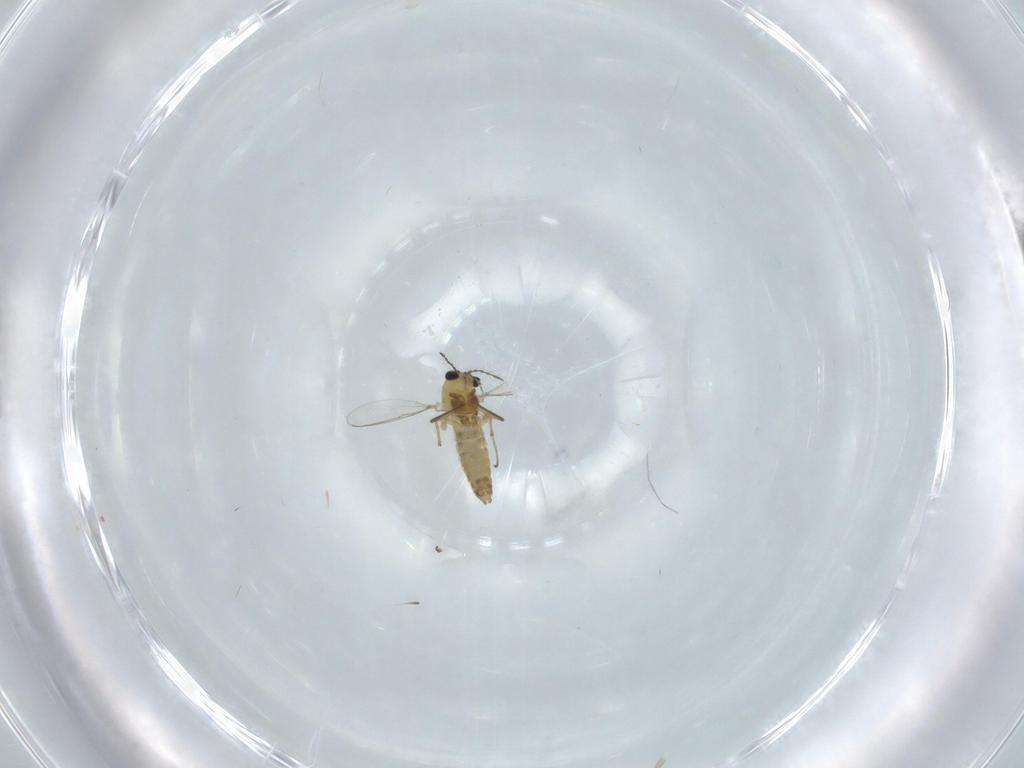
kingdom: Animalia
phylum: Arthropoda
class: Insecta
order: Diptera
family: Chironomidae
